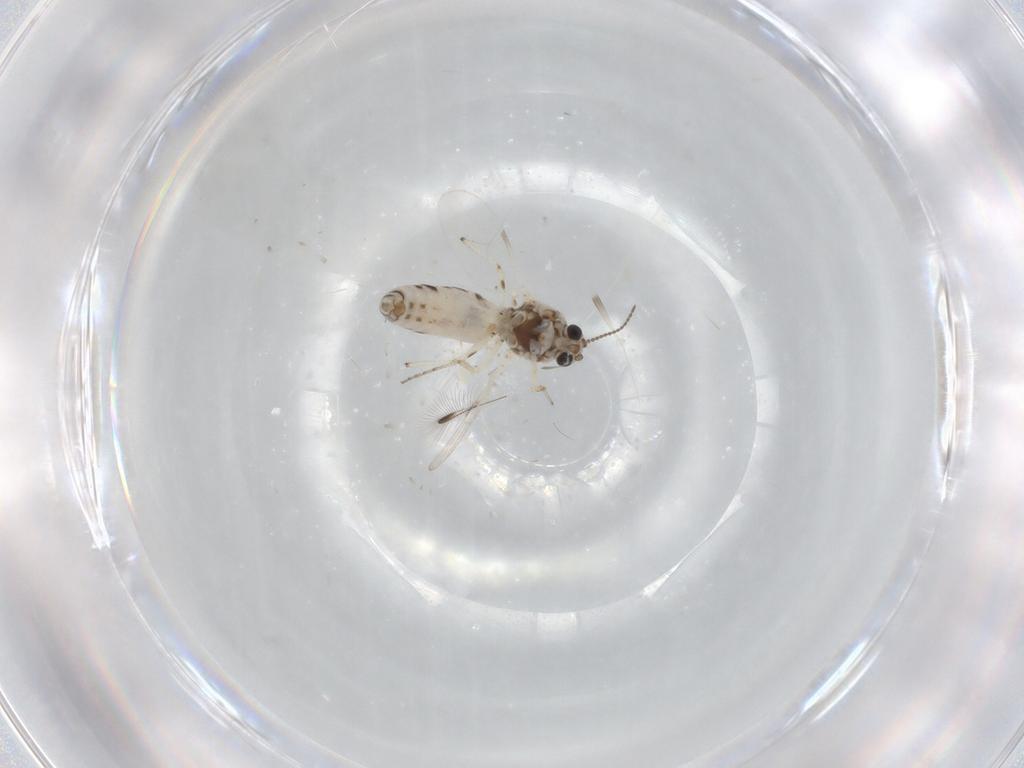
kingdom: Animalia
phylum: Arthropoda
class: Insecta
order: Diptera
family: Ceratopogonidae
